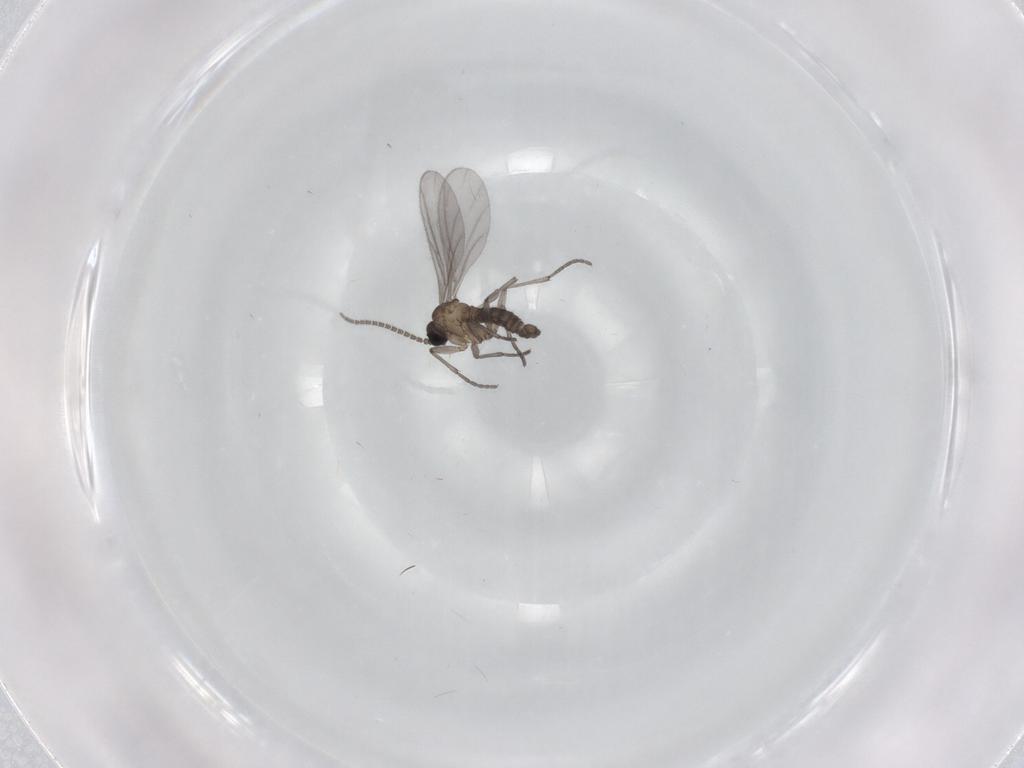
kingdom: Animalia
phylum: Arthropoda
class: Insecta
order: Diptera
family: Sciaridae
